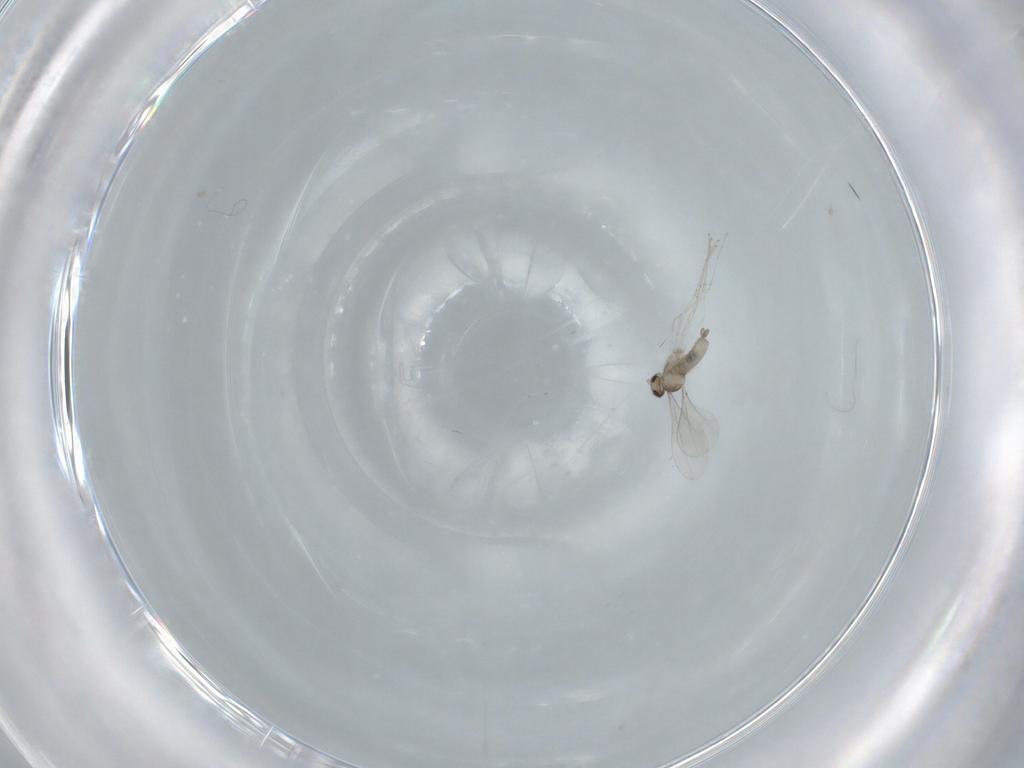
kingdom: Animalia
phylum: Arthropoda
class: Insecta
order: Diptera
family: Cecidomyiidae
